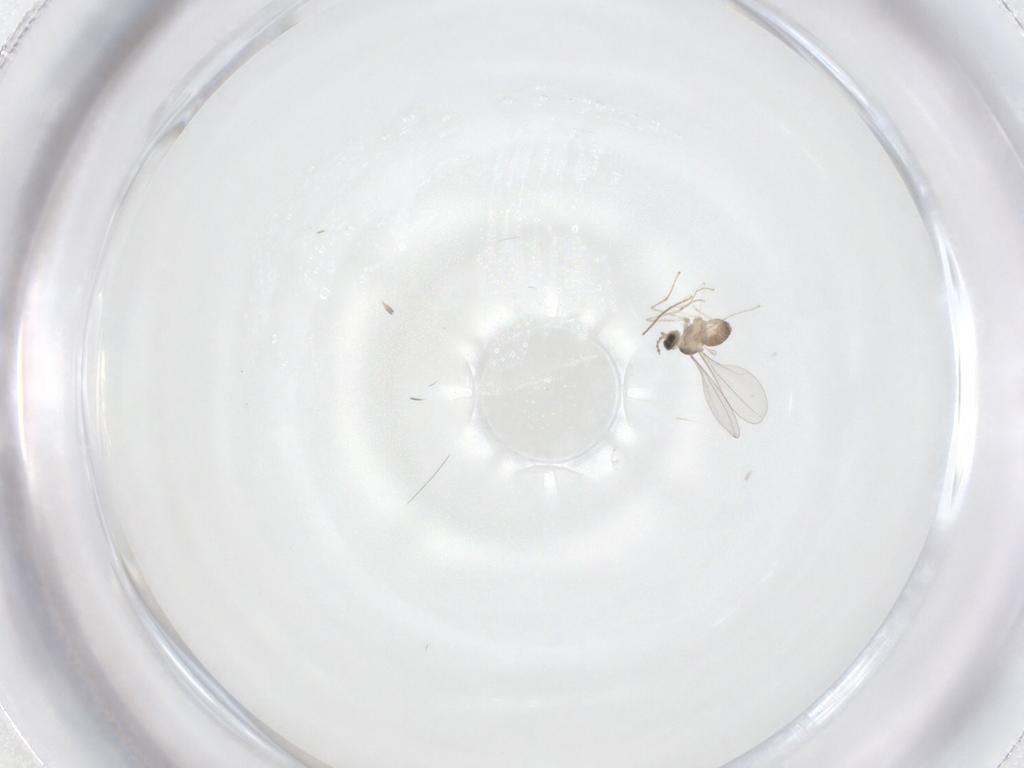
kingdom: Animalia
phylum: Arthropoda
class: Insecta
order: Diptera
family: Chironomidae
